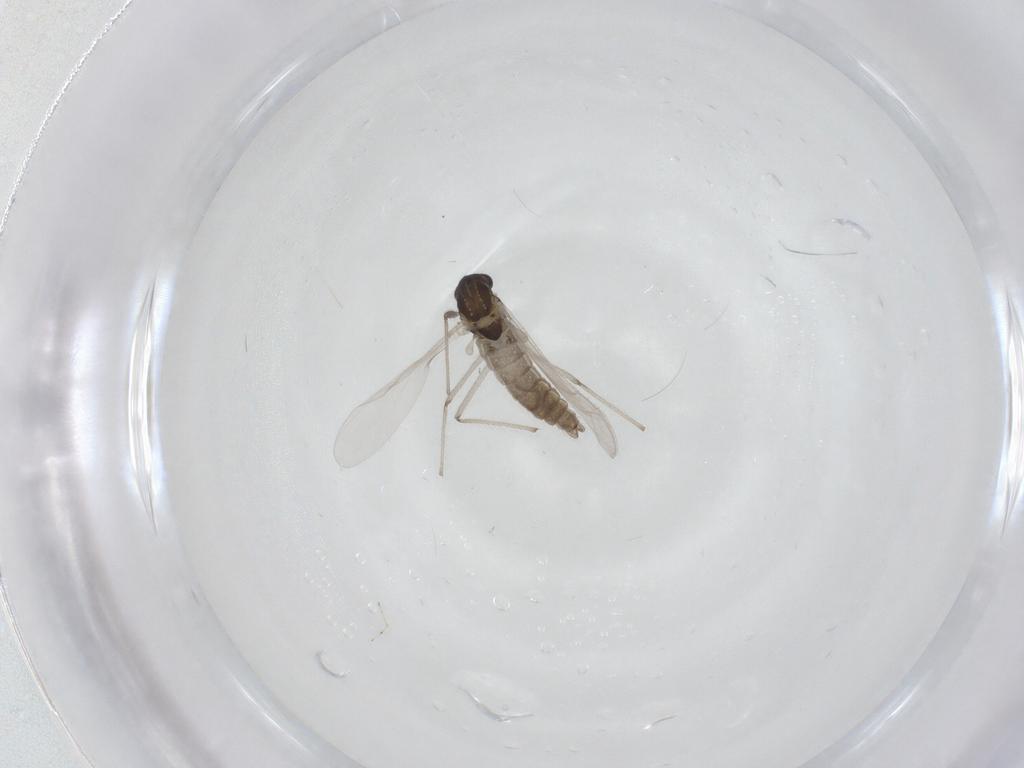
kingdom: Animalia
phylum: Arthropoda
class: Insecta
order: Diptera
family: Chironomidae
